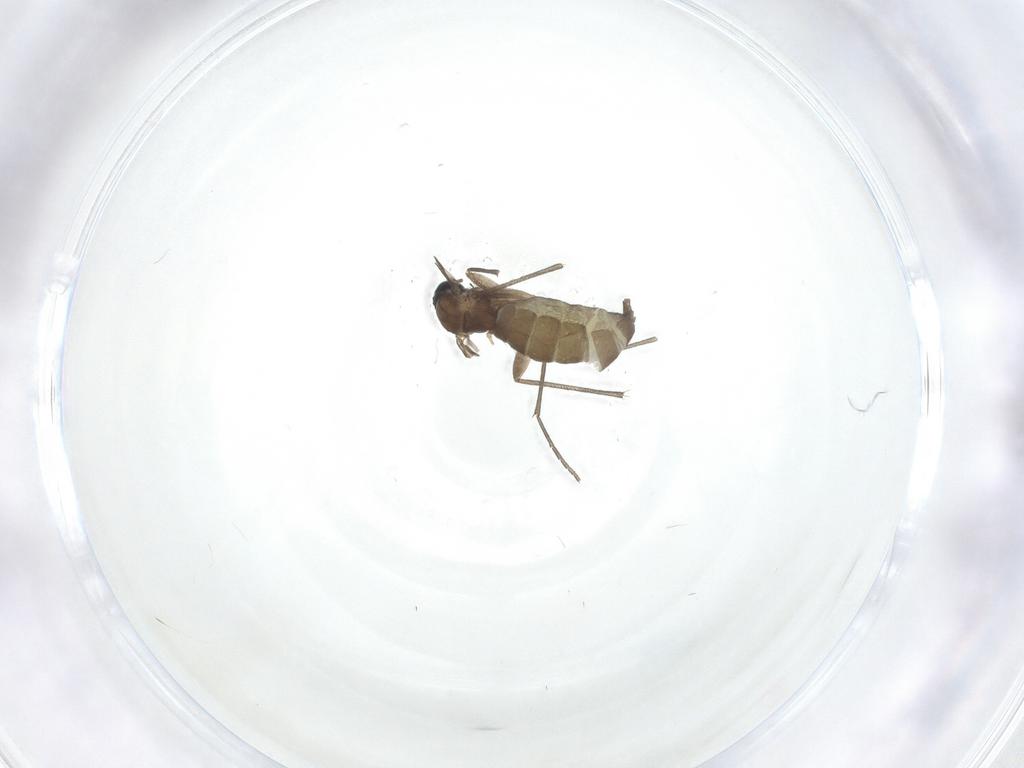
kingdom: Animalia
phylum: Arthropoda
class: Insecta
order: Diptera
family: Sciaridae
